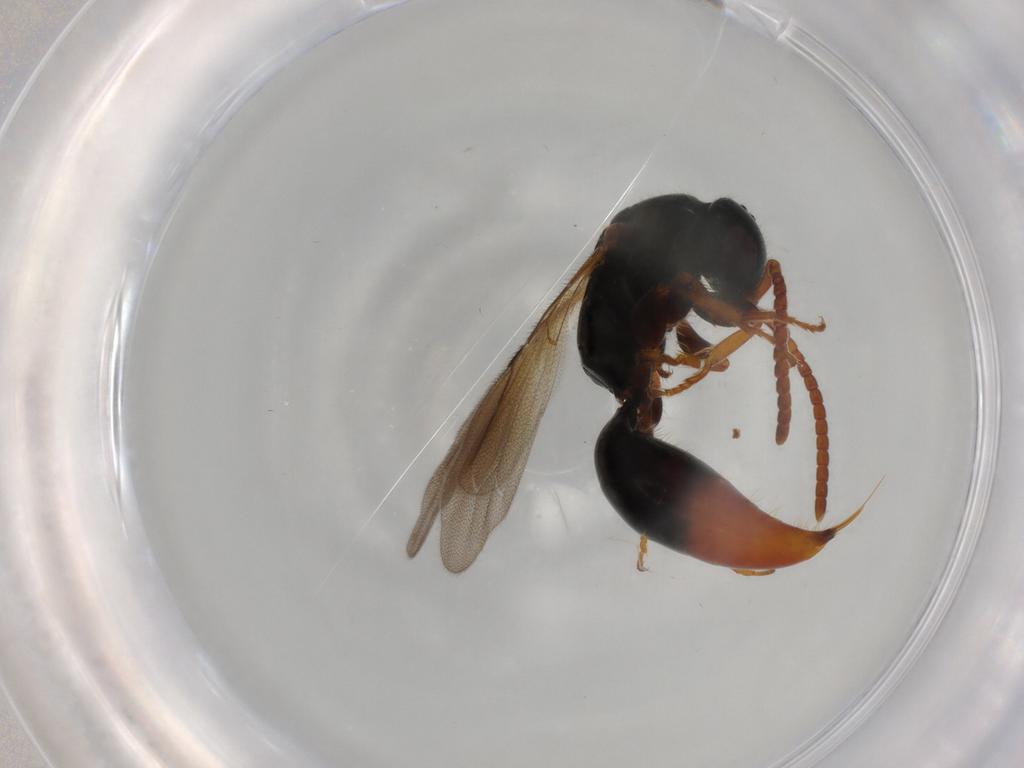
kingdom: Animalia
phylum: Arthropoda
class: Insecta
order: Hymenoptera
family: Bethylidae
